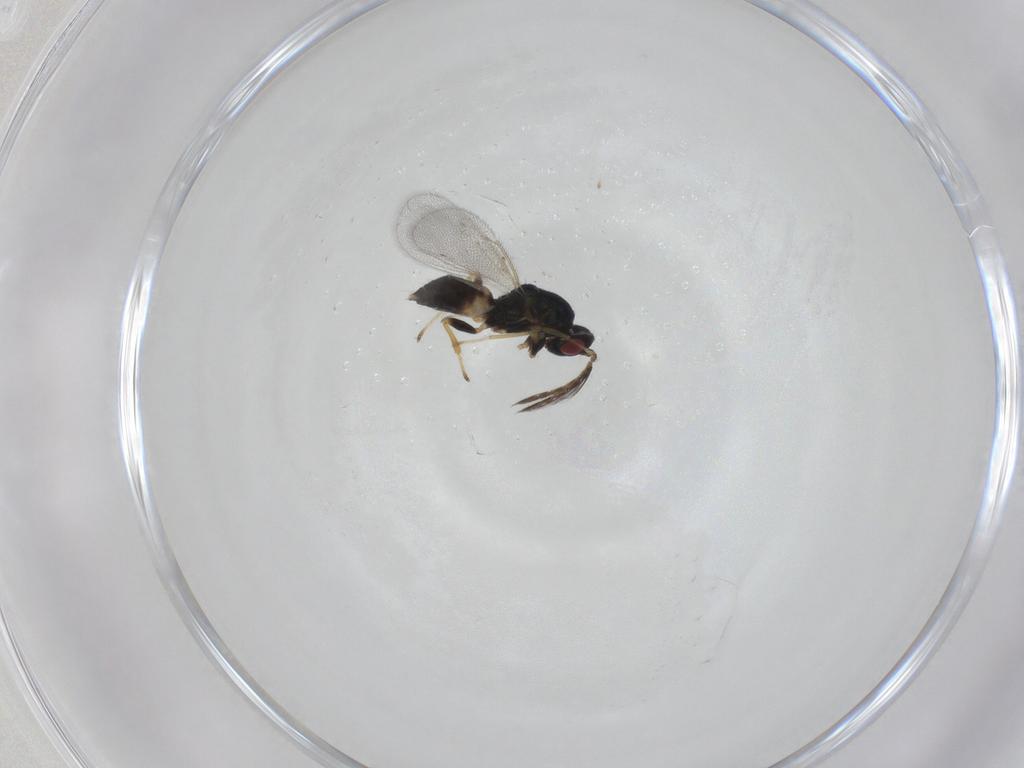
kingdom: Animalia
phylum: Arthropoda
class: Insecta
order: Hymenoptera
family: Eulophidae
